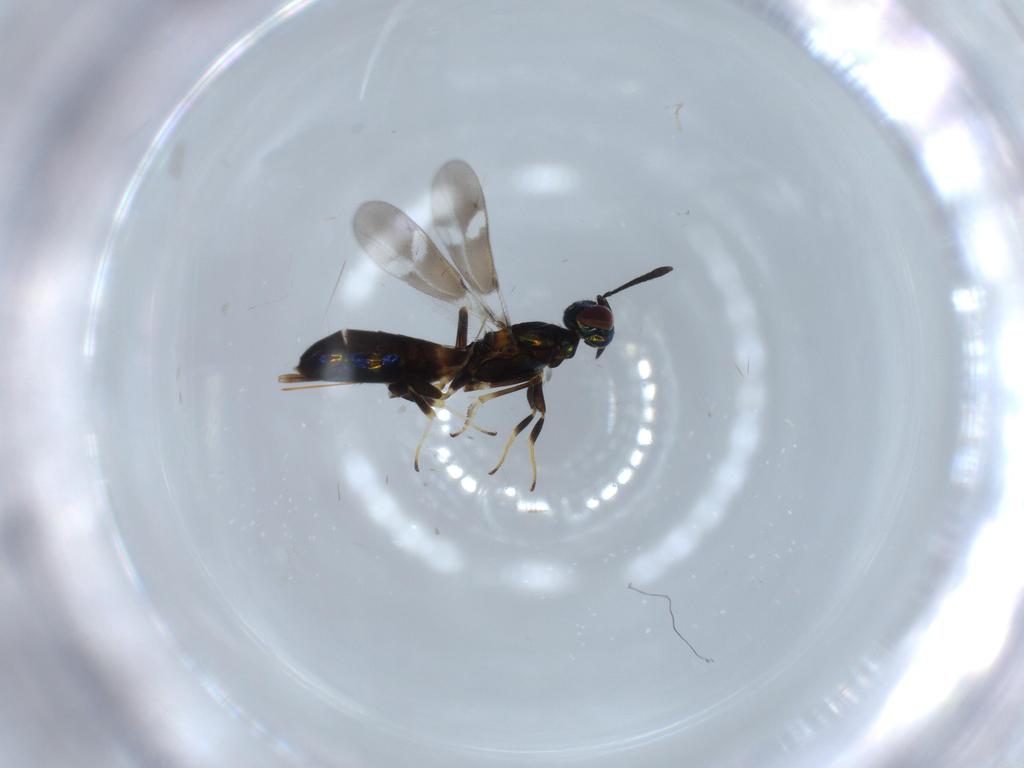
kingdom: Animalia
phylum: Arthropoda
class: Insecta
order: Hymenoptera
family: Eupelmidae
